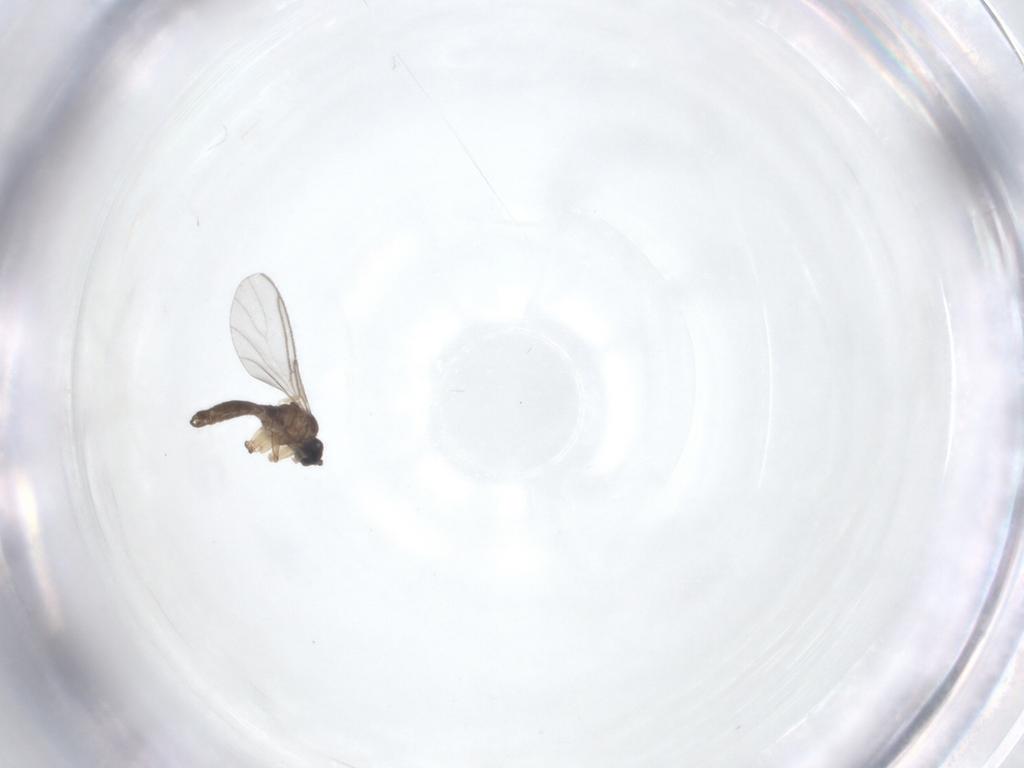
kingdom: Animalia
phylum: Arthropoda
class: Insecta
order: Diptera
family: Sciaridae
